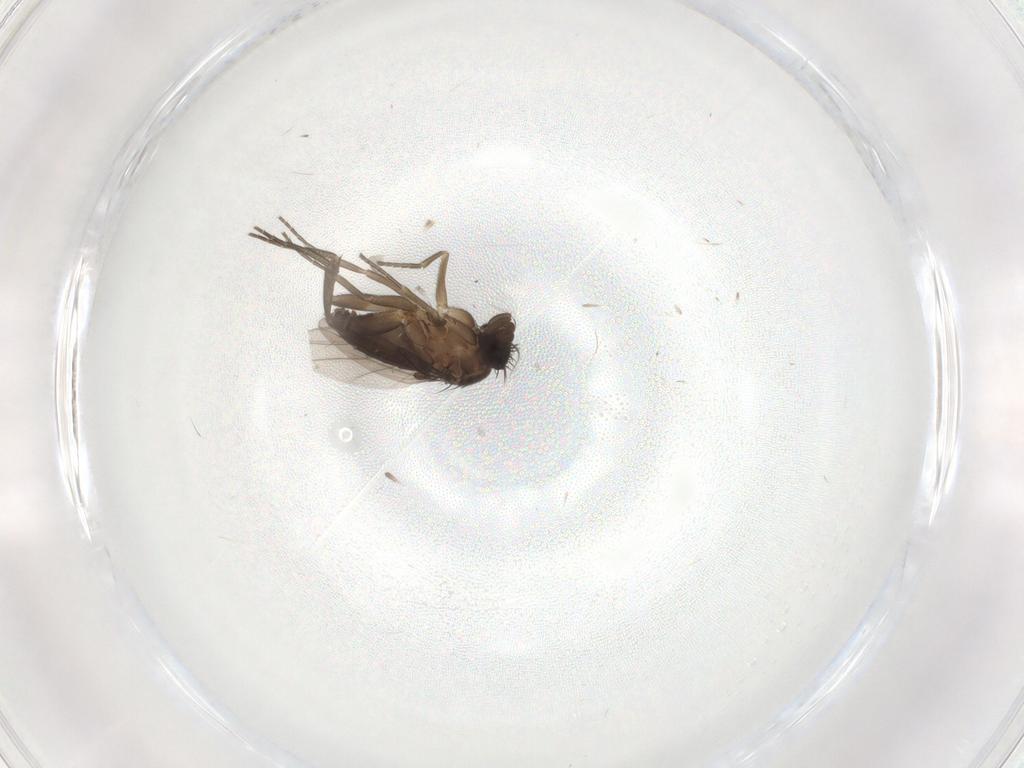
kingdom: Animalia
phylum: Arthropoda
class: Insecta
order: Diptera
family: Phoridae
